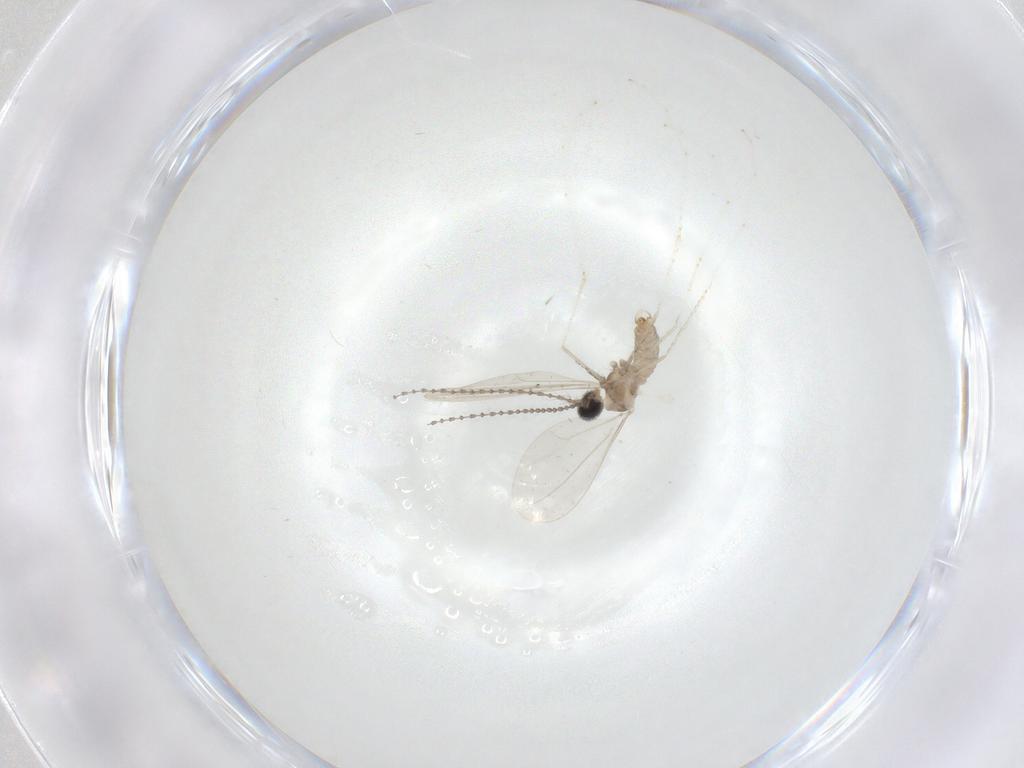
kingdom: Animalia
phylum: Arthropoda
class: Insecta
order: Diptera
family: Cecidomyiidae
